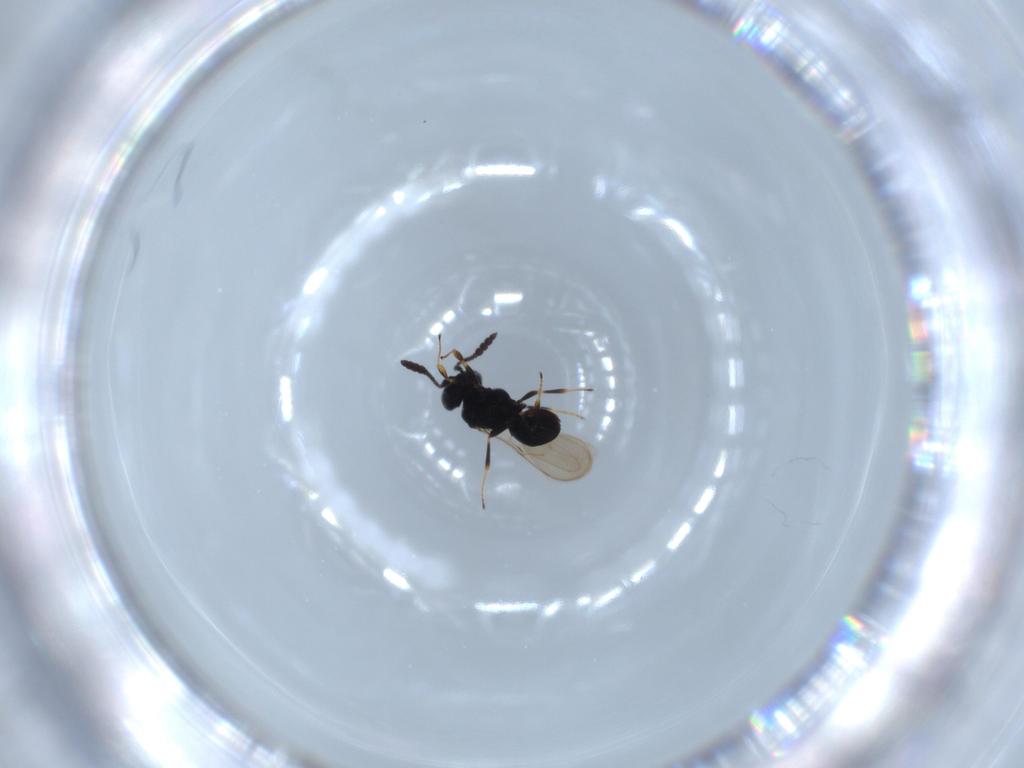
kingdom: Animalia
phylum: Arthropoda
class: Insecta
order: Hymenoptera
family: Scelionidae
